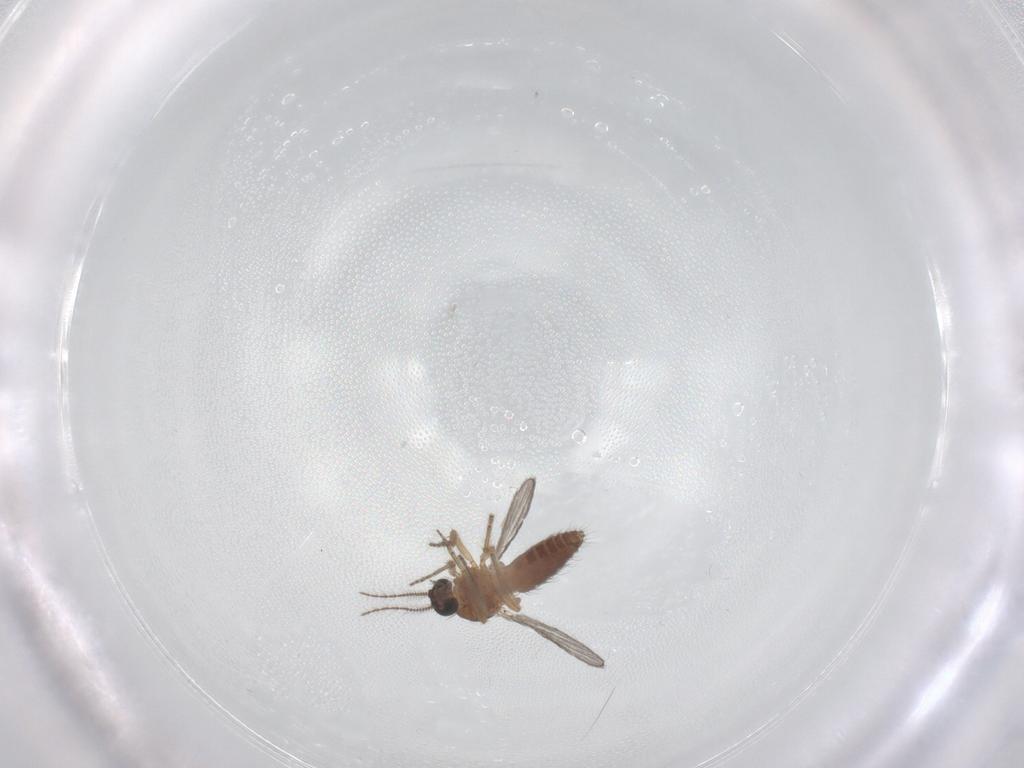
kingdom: Animalia
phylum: Arthropoda
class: Insecta
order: Diptera
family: Ceratopogonidae
